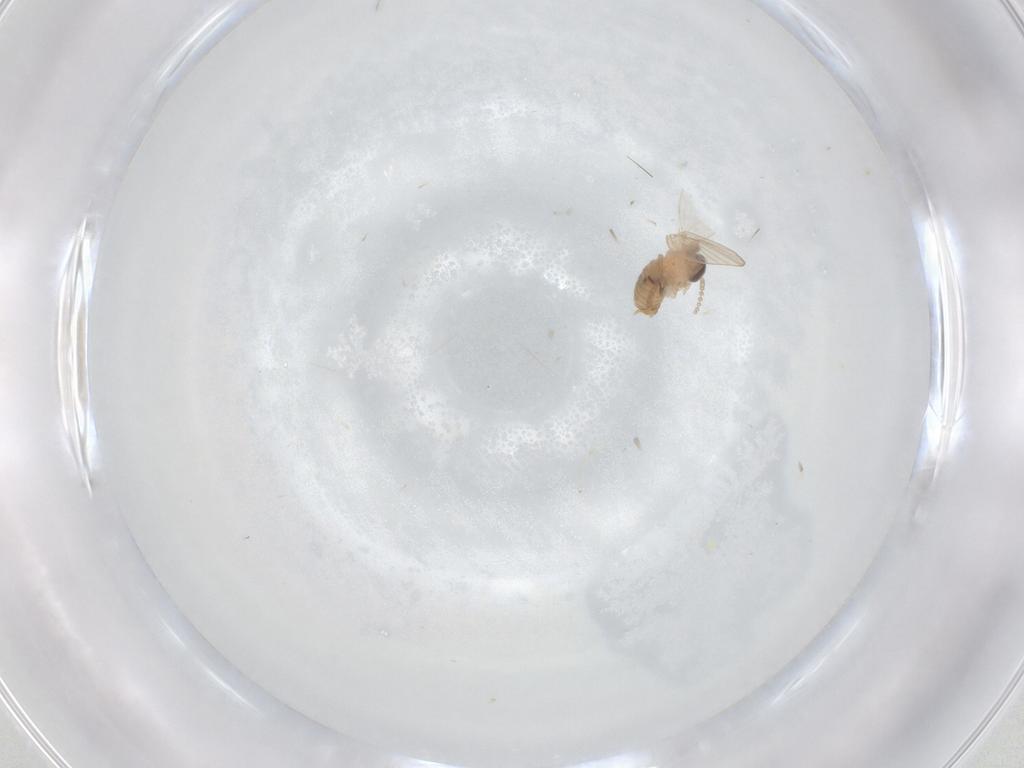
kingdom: Animalia
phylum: Arthropoda
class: Insecta
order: Diptera
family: Psychodidae
